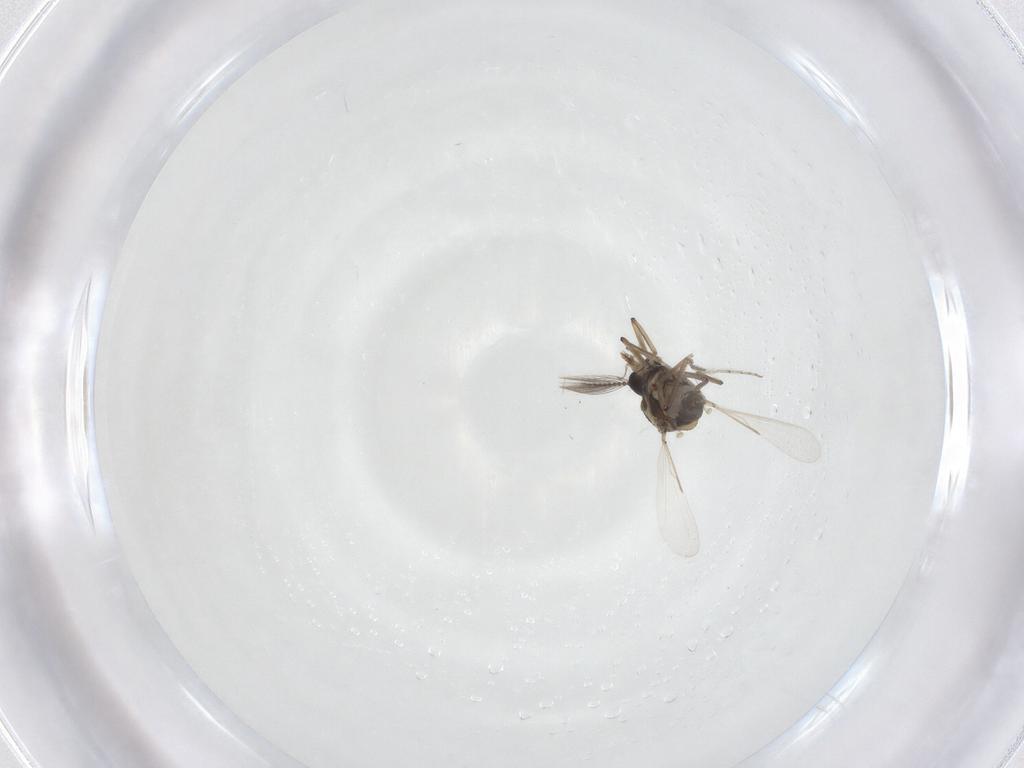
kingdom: Animalia
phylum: Arthropoda
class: Insecta
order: Diptera
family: Ceratopogonidae
